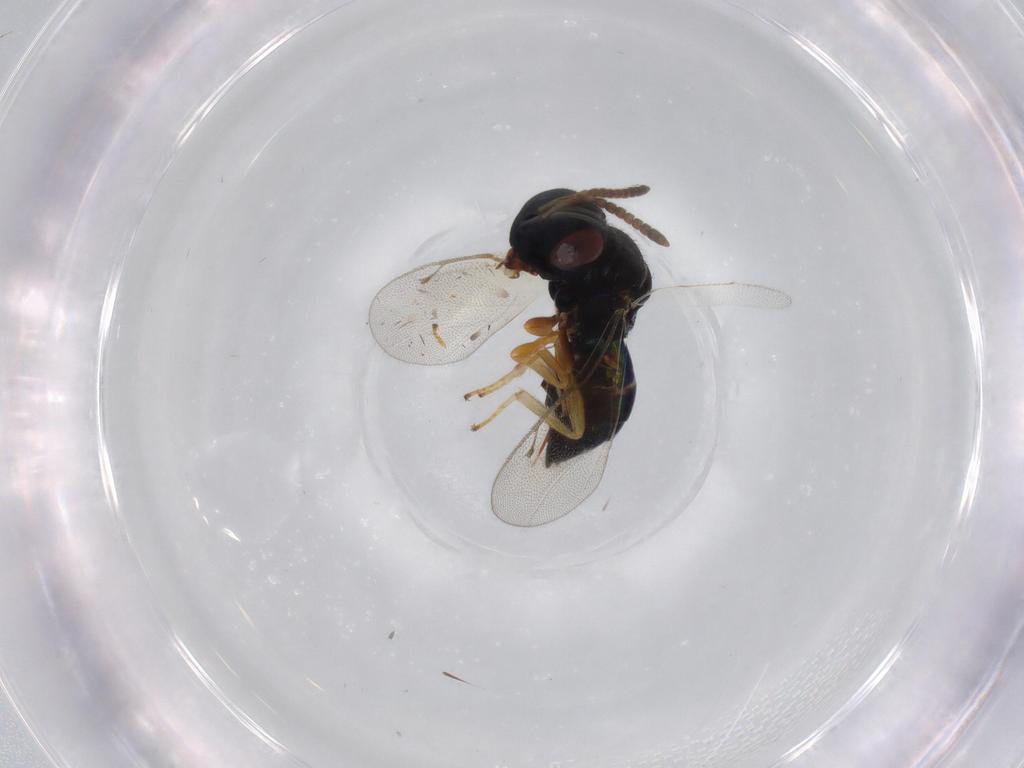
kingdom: Animalia
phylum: Arthropoda
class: Insecta
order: Hymenoptera
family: Pteromalidae
